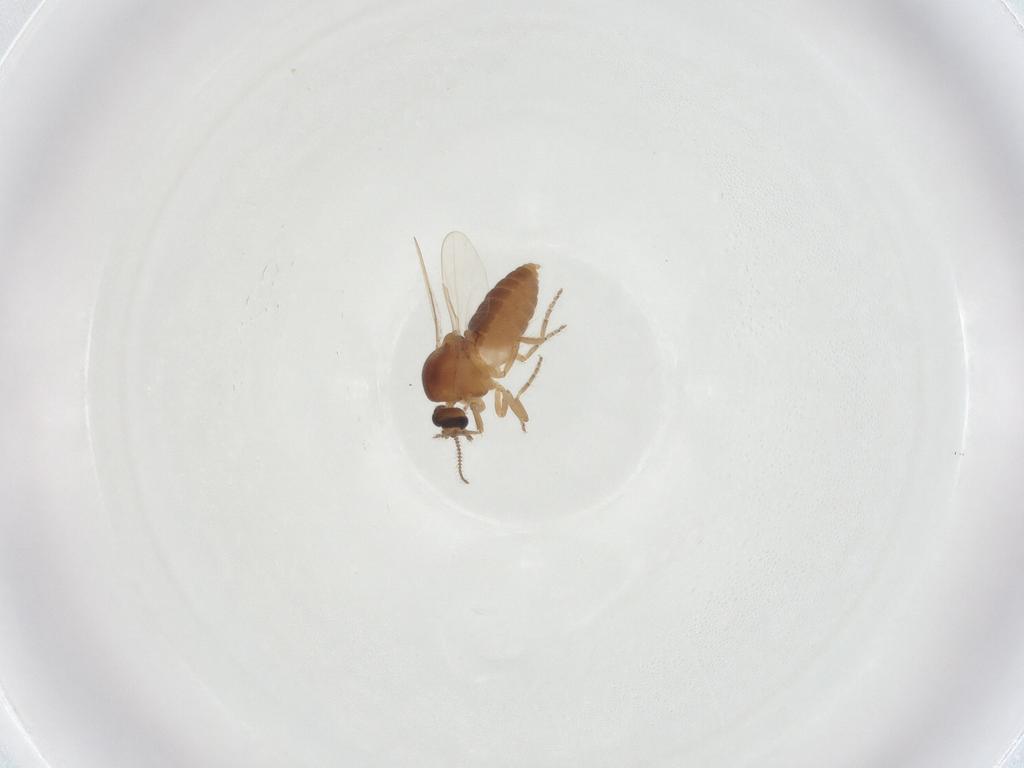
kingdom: Animalia
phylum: Arthropoda
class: Insecta
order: Diptera
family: Ceratopogonidae
